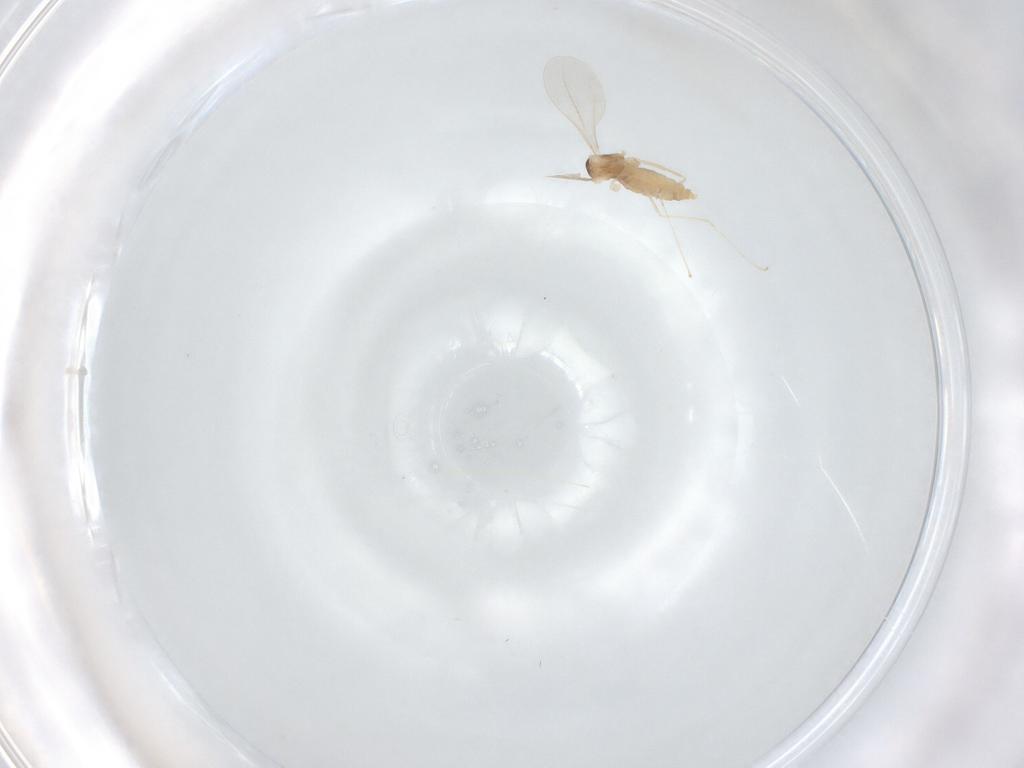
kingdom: Animalia
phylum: Arthropoda
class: Insecta
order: Diptera
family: Cecidomyiidae
